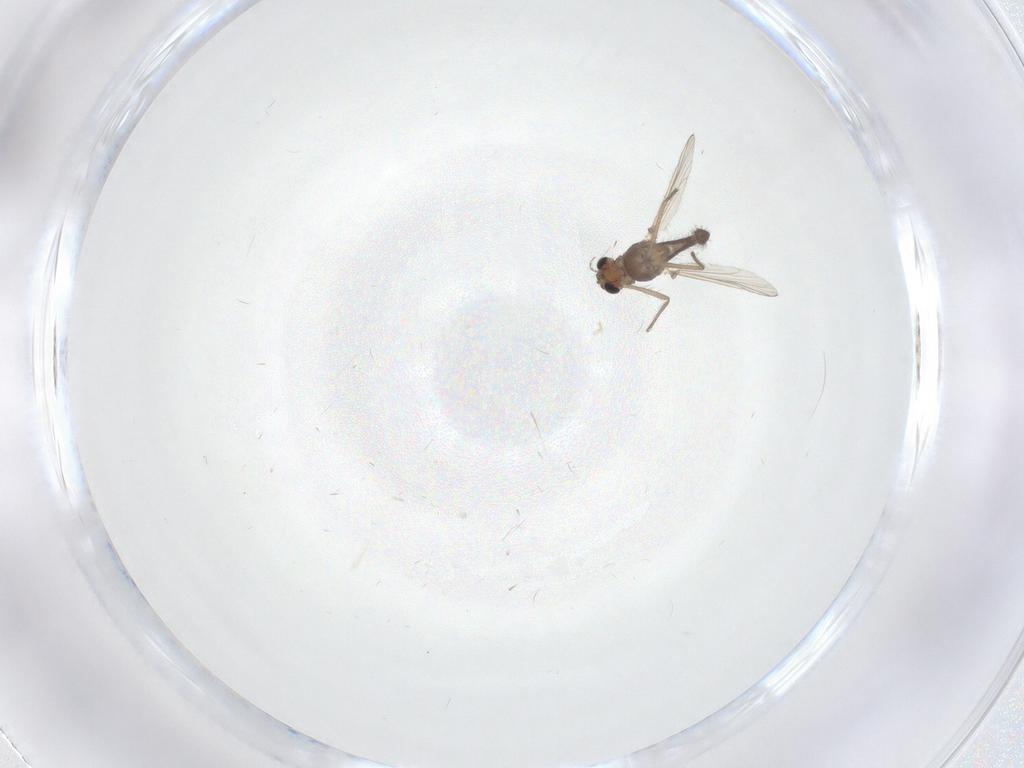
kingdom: Animalia
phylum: Arthropoda
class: Insecta
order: Diptera
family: Chironomidae
